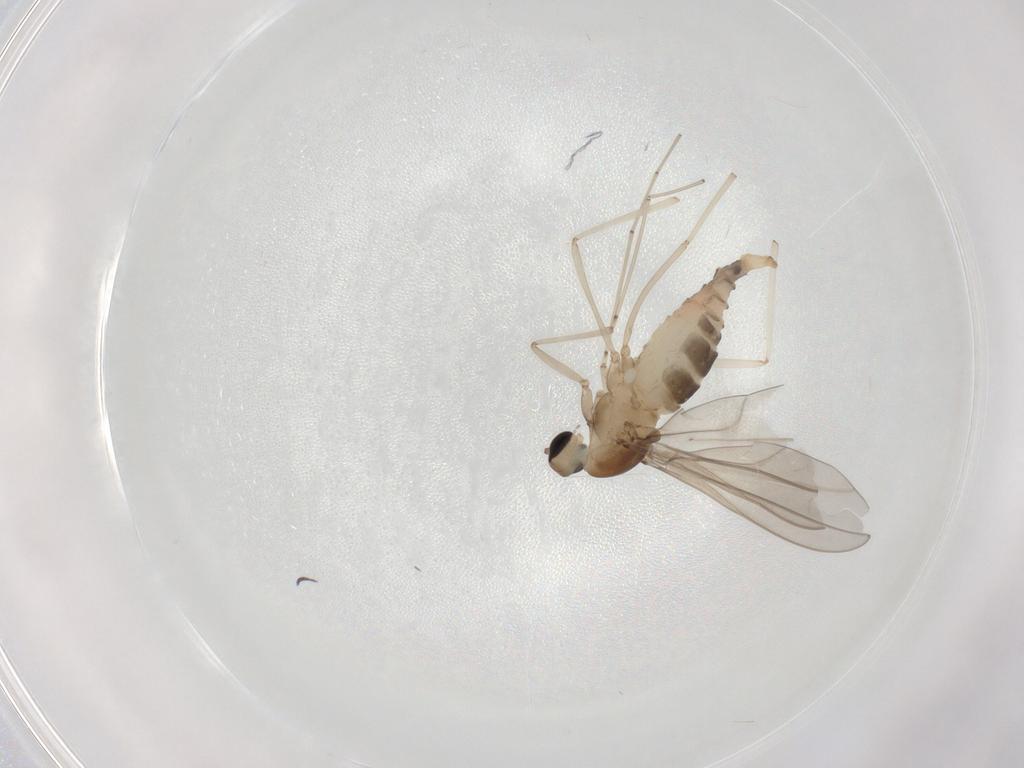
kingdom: Animalia
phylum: Arthropoda
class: Insecta
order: Diptera
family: Cecidomyiidae
